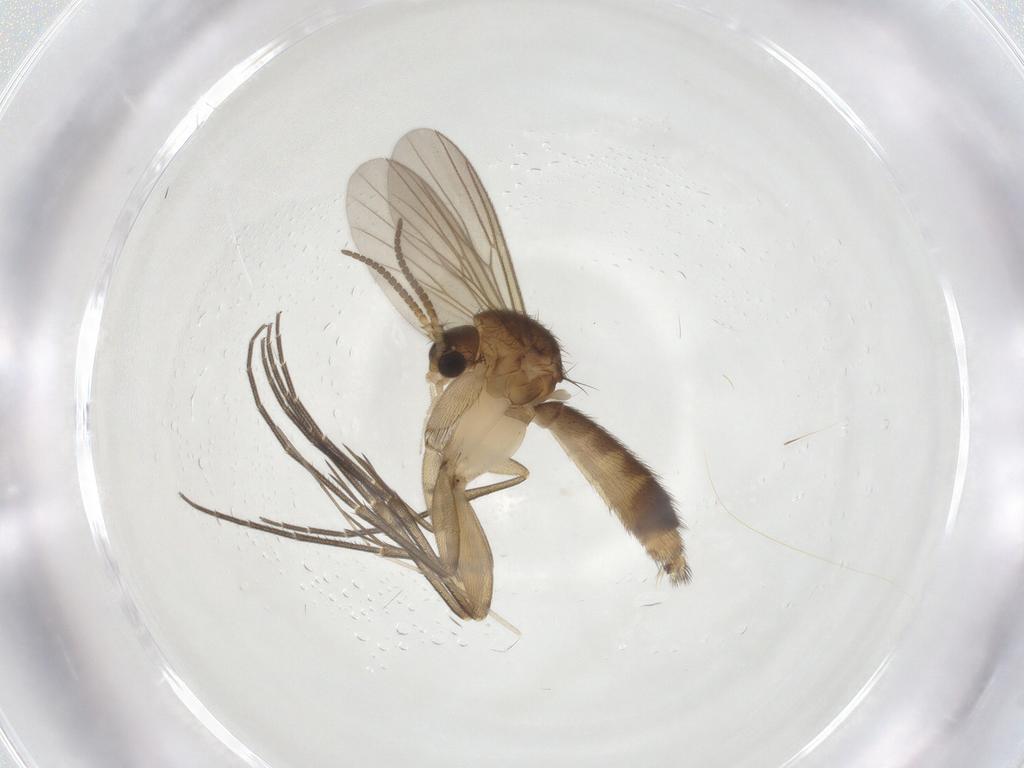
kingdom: Animalia
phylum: Arthropoda
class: Insecta
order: Diptera
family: Mycetophilidae
